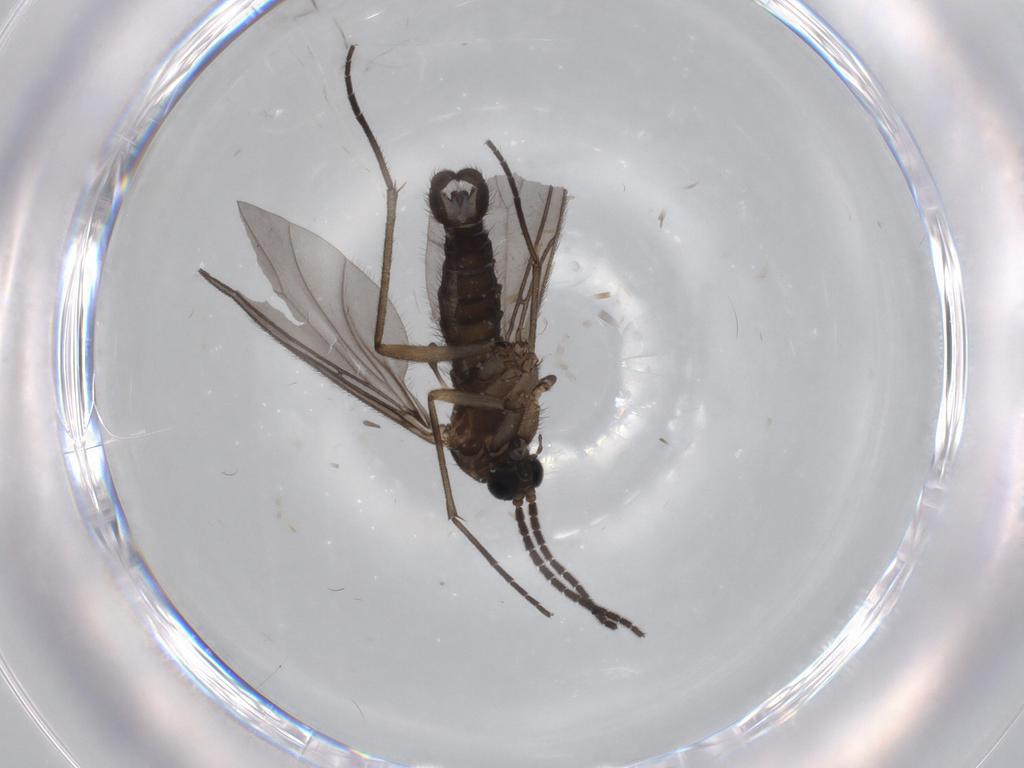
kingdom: Animalia
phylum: Arthropoda
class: Insecta
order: Diptera
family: Sciaridae
